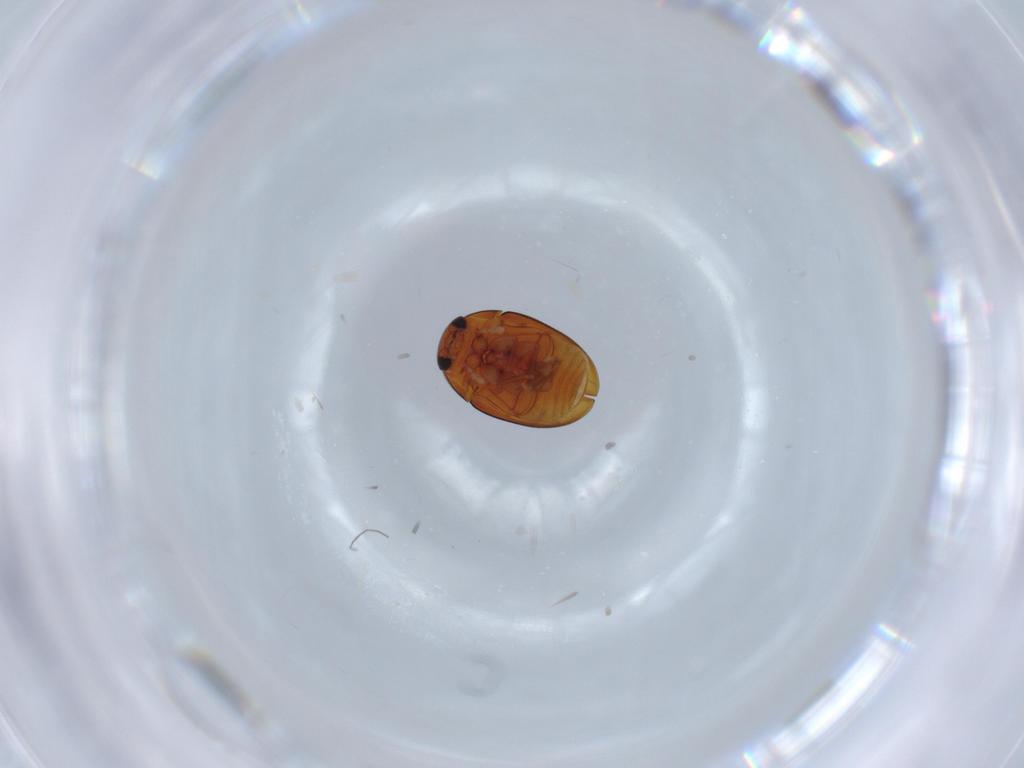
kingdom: Animalia
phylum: Arthropoda
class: Insecta
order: Coleoptera
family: Phalacridae
